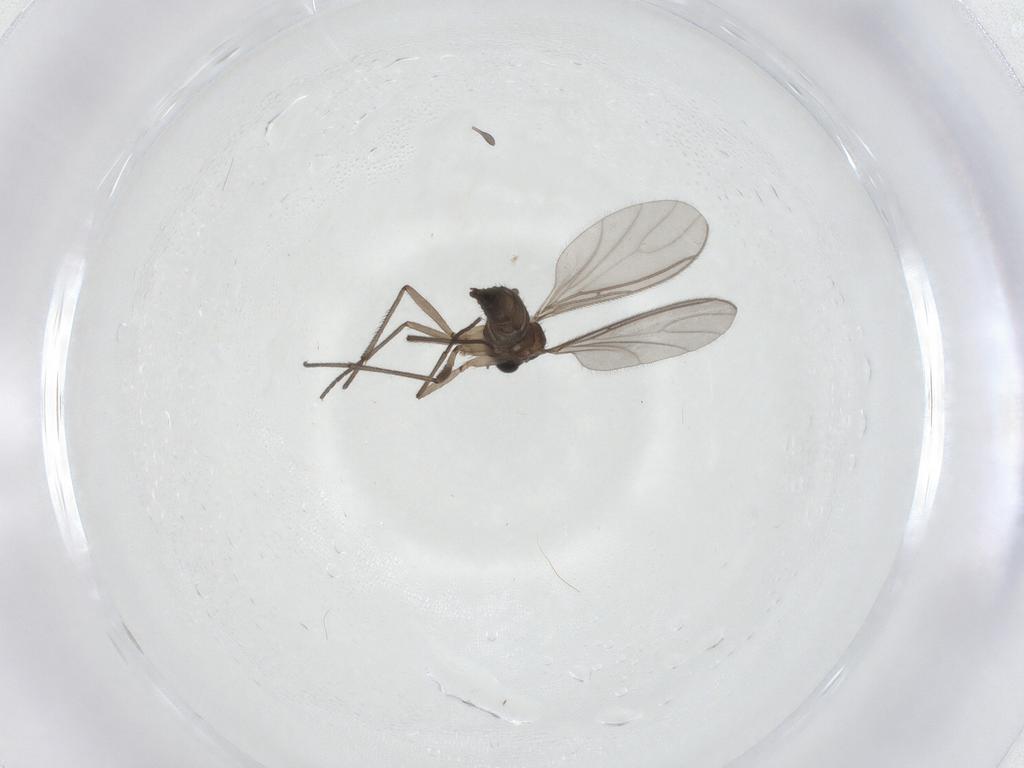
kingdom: Animalia
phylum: Arthropoda
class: Insecta
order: Diptera
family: Sciaridae
